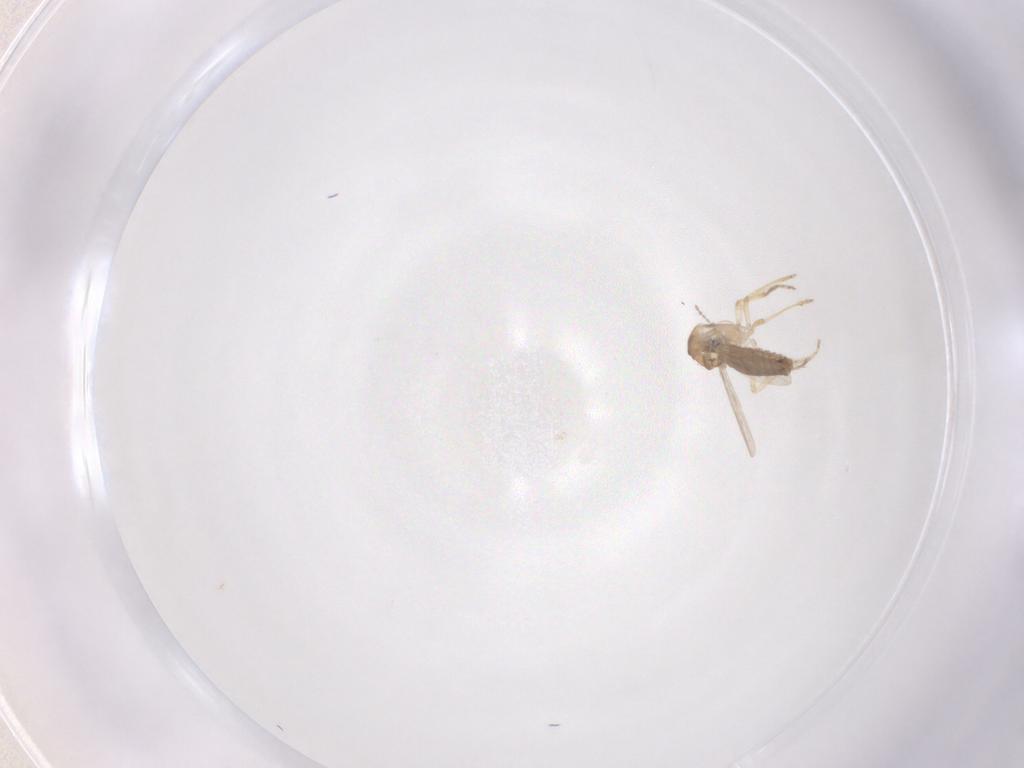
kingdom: Animalia
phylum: Arthropoda
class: Insecta
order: Diptera
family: Ceratopogonidae
